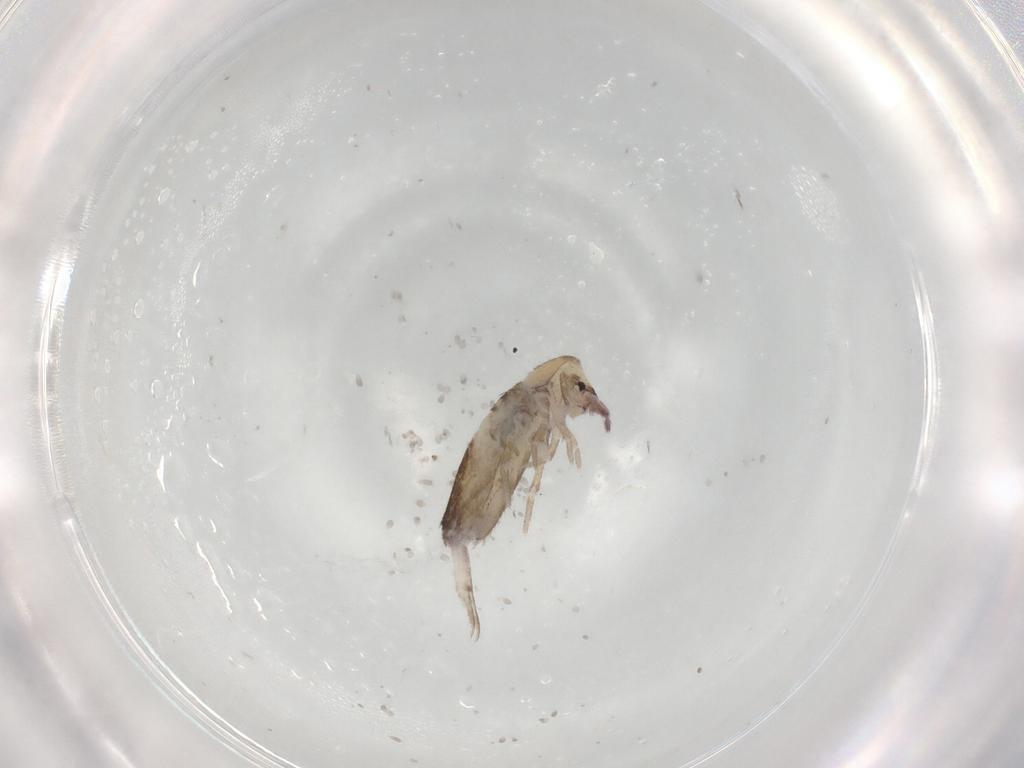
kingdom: Animalia
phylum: Arthropoda
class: Collembola
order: Entomobryomorpha
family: Entomobryidae
